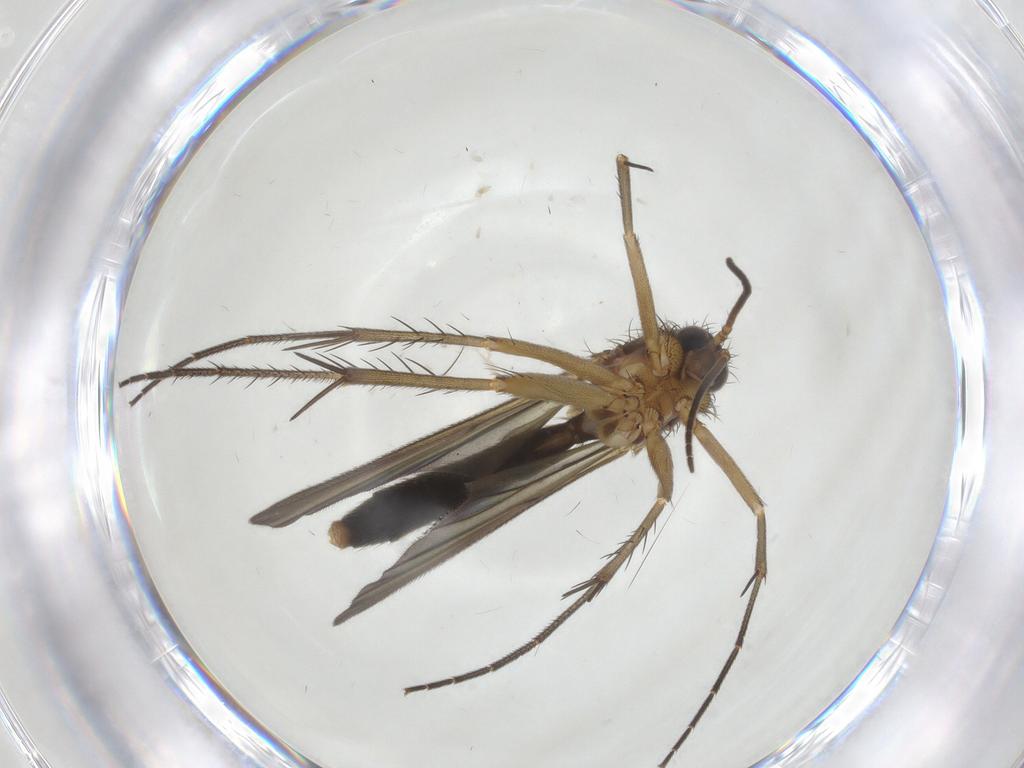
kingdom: Animalia
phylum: Arthropoda
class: Insecta
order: Diptera
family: Mycetophilidae
